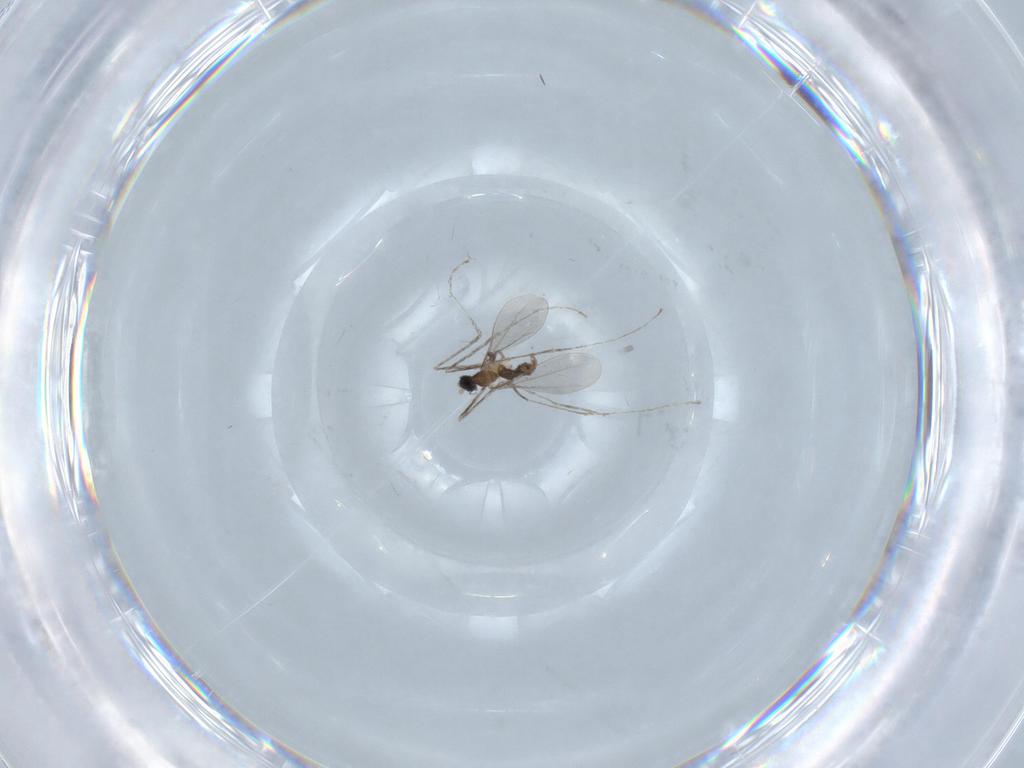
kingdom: Animalia
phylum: Arthropoda
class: Insecta
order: Diptera
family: Cecidomyiidae
